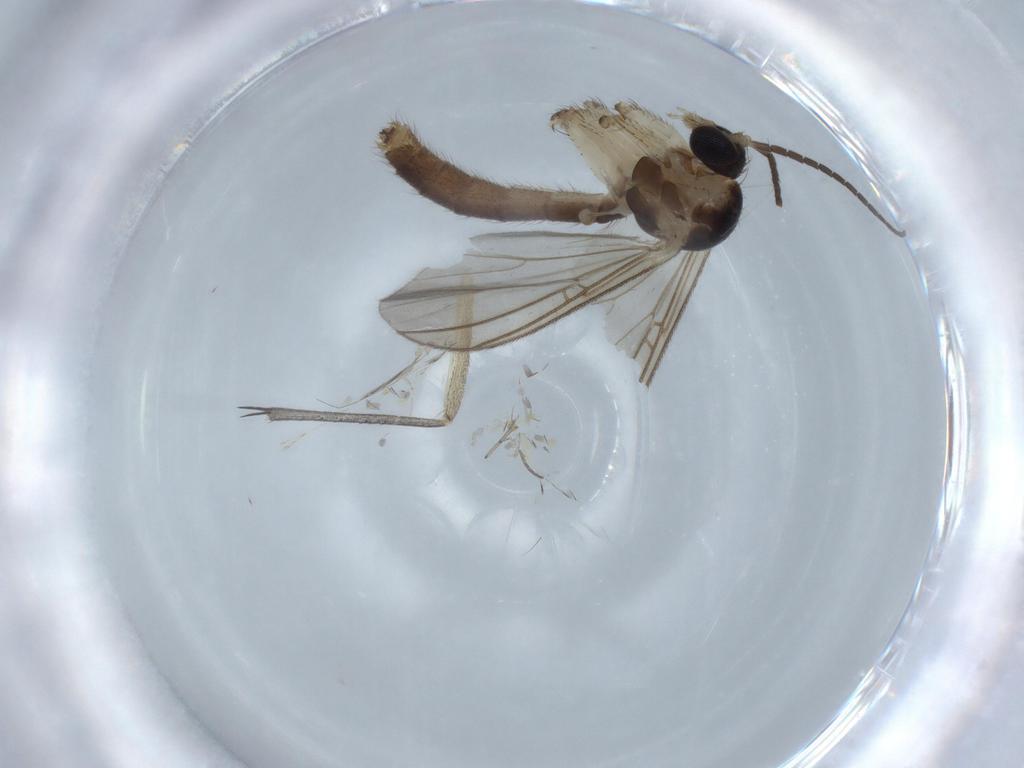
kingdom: Animalia
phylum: Arthropoda
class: Insecta
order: Diptera
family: Mycetophilidae
